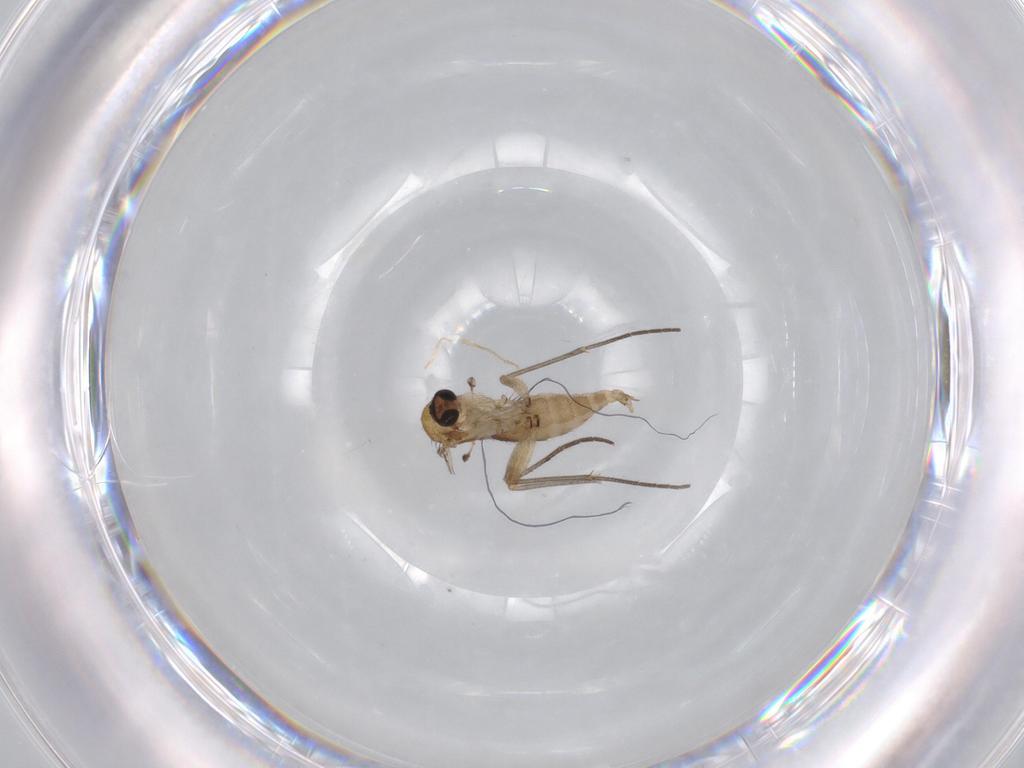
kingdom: Animalia
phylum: Arthropoda
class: Insecta
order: Diptera
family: Sciaridae
